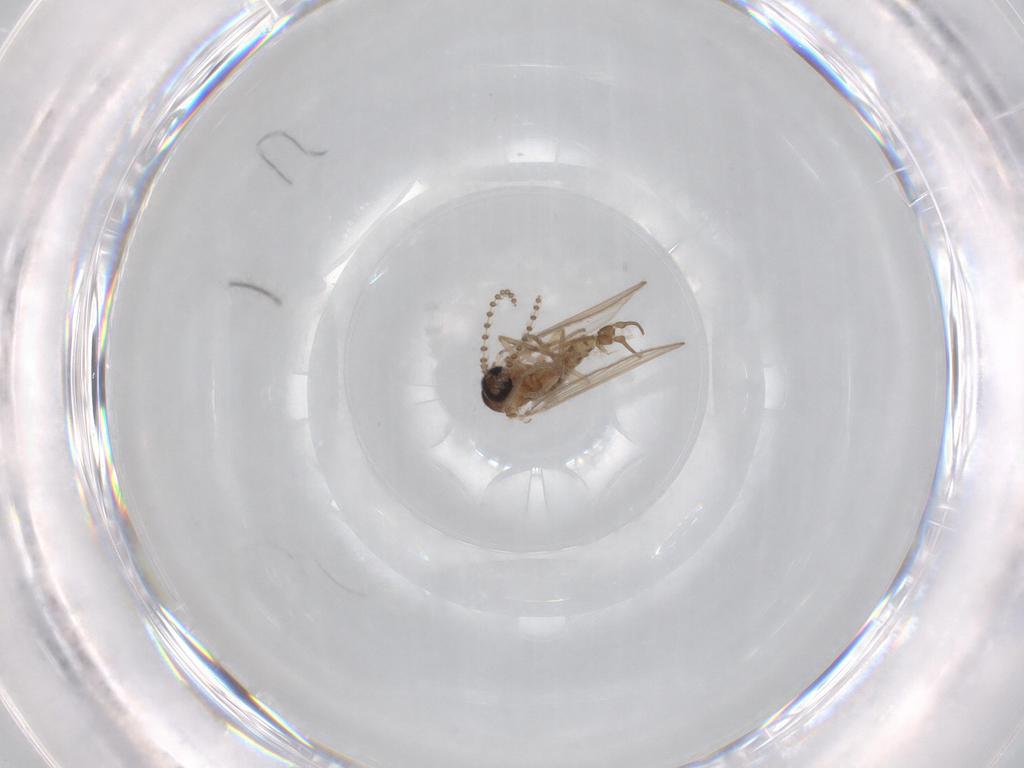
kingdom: Animalia
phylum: Arthropoda
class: Insecta
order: Diptera
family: Psychodidae
